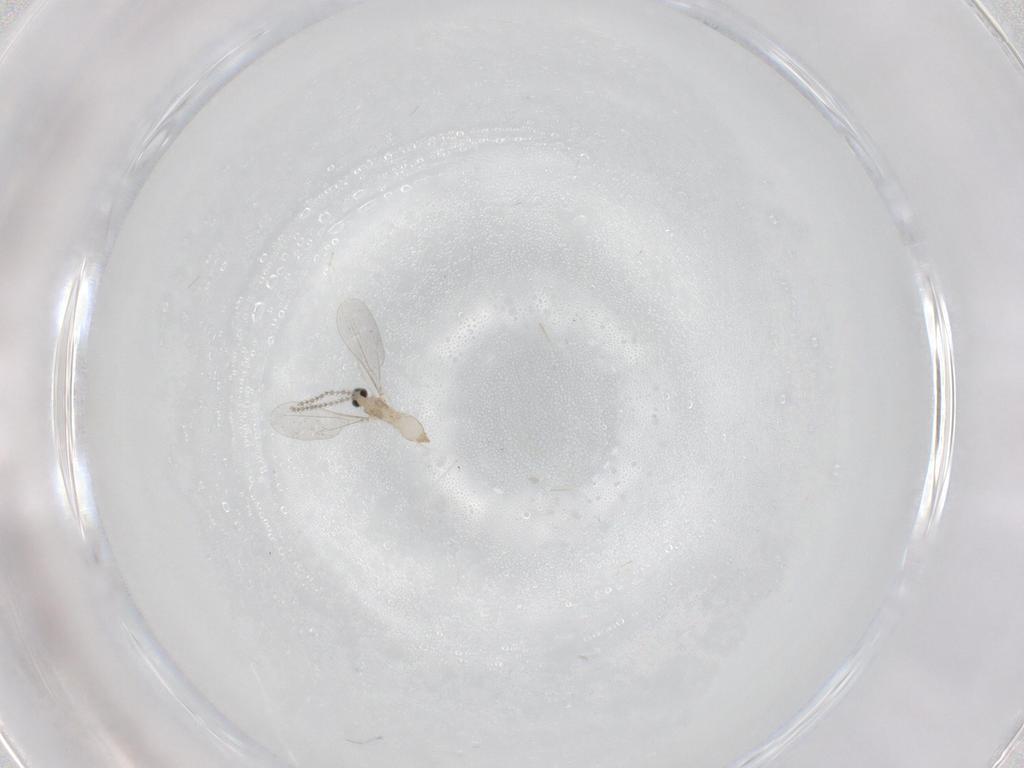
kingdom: Animalia
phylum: Arthropoda
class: Insecta
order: Diptera
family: Cecidomyiidae
